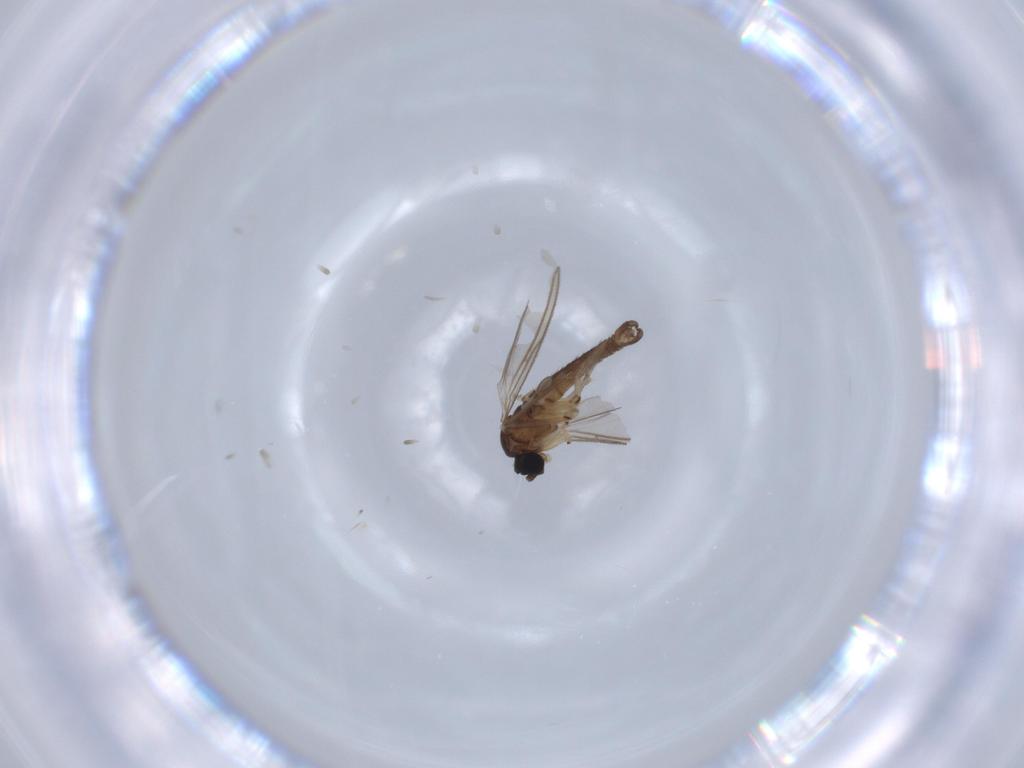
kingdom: Animalia
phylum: Arthropoda
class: Insecta
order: Diptera
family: Sciaridae
